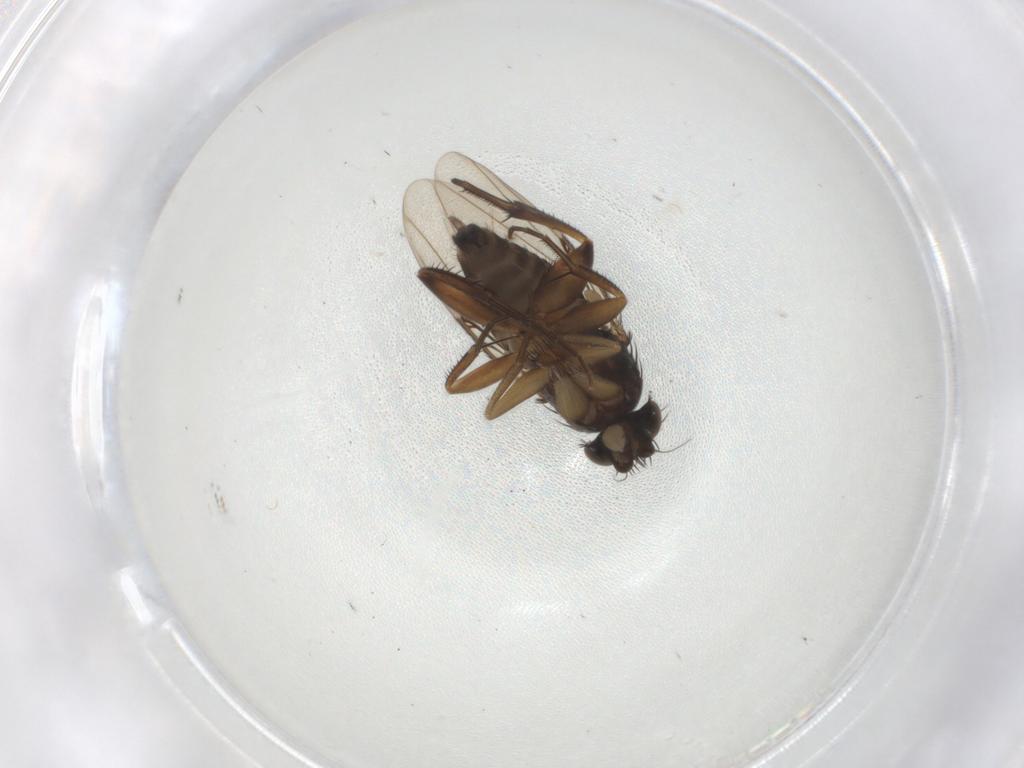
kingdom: Animalia
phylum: Arthropoda
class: Insecta
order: Diptera
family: Phoridae
